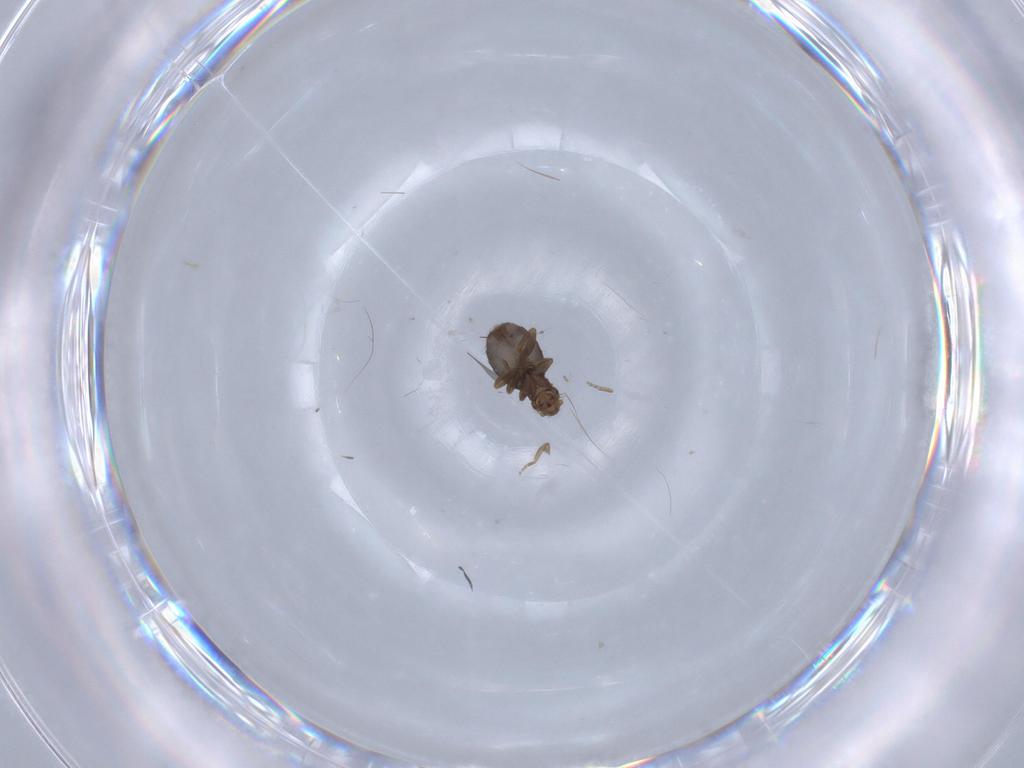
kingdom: Animalia
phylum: Arthropoda
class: Insecta
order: Diptera
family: Phoridae
